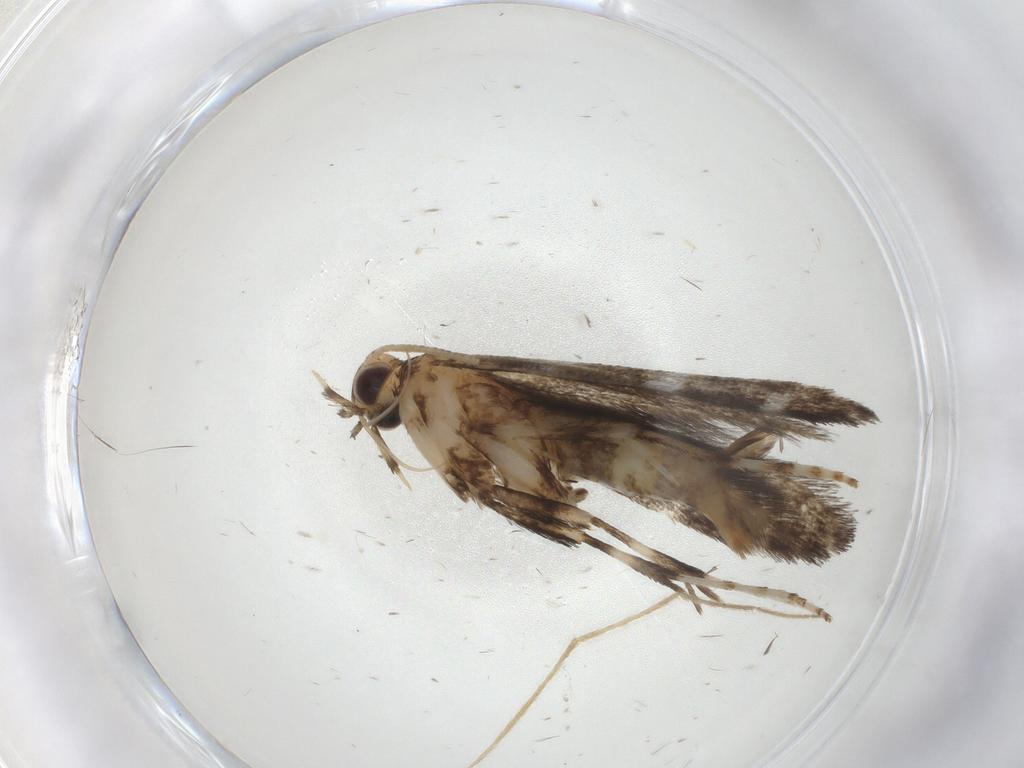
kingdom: Animalia
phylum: Arthropoda
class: Insecta
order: Lepidoptera
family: Gracillariidae
